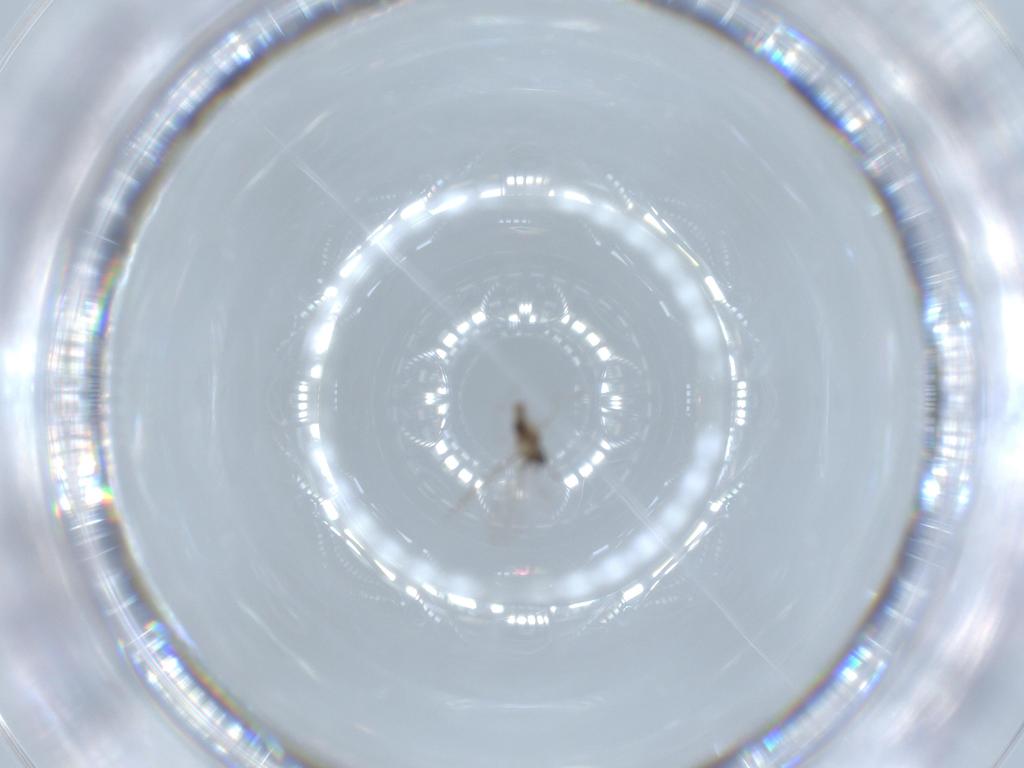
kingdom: Animalia
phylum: Arthropoda
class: Insecta
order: Diptera
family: Cecidomyiidae
